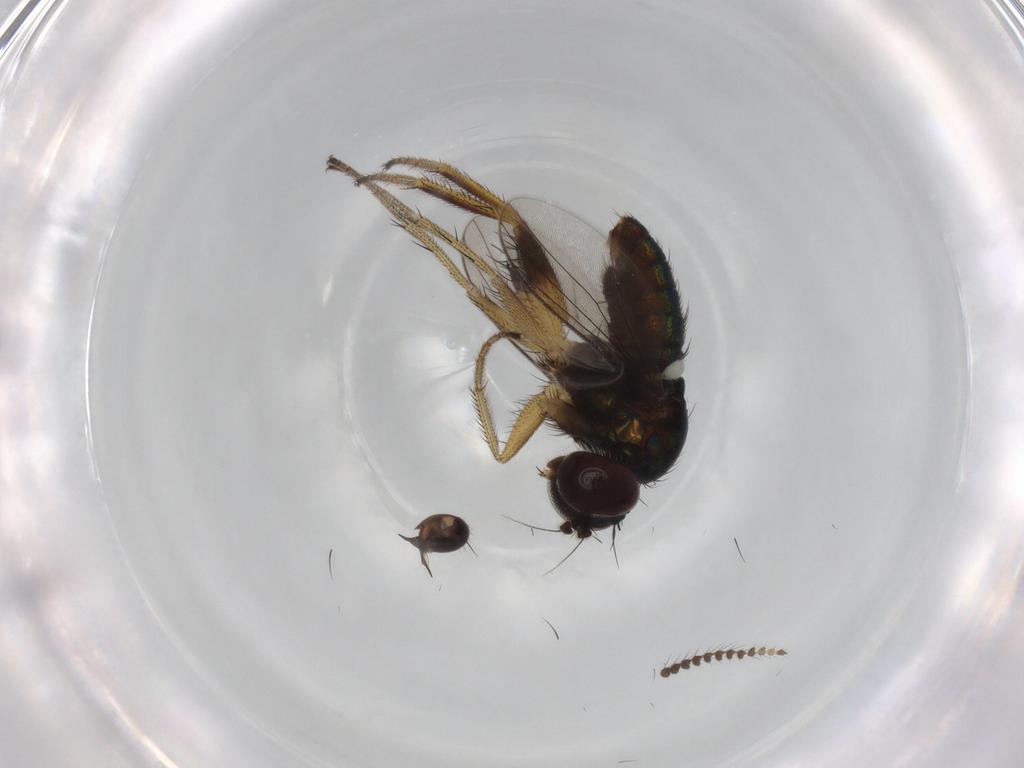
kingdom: Animalia
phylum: Arthropoda
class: Insecta
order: Diptera
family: Dolichopodidae
